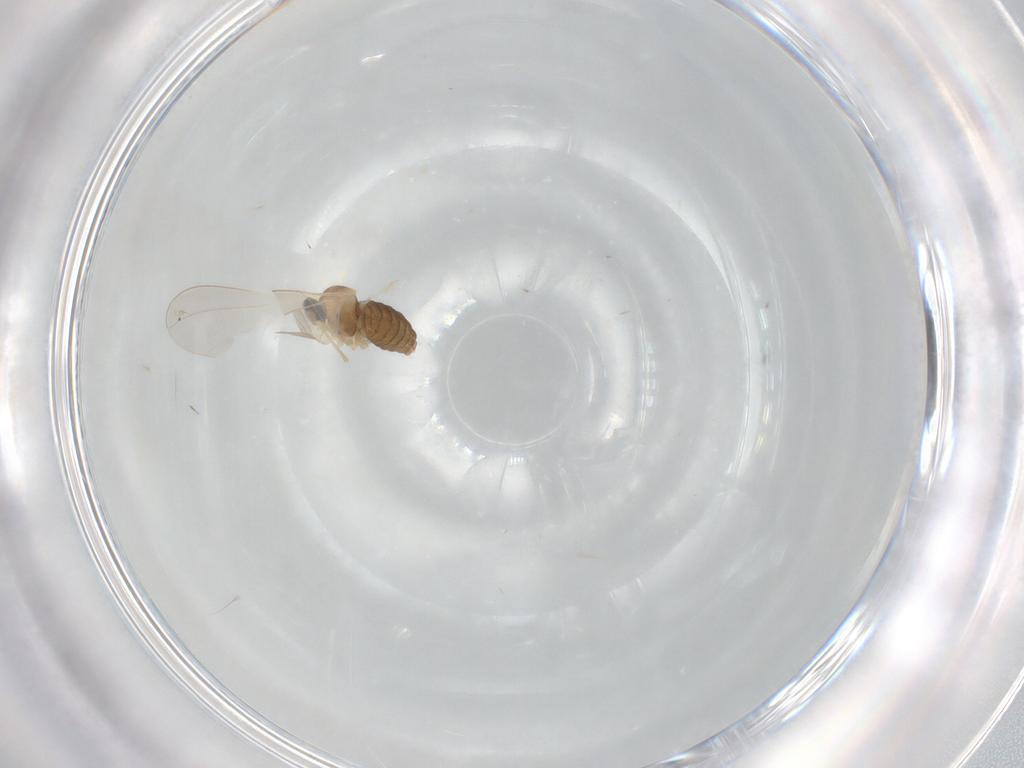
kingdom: Animalia
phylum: Arthropoda
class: Insecta
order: Diptera
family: Cecidomyiidae
